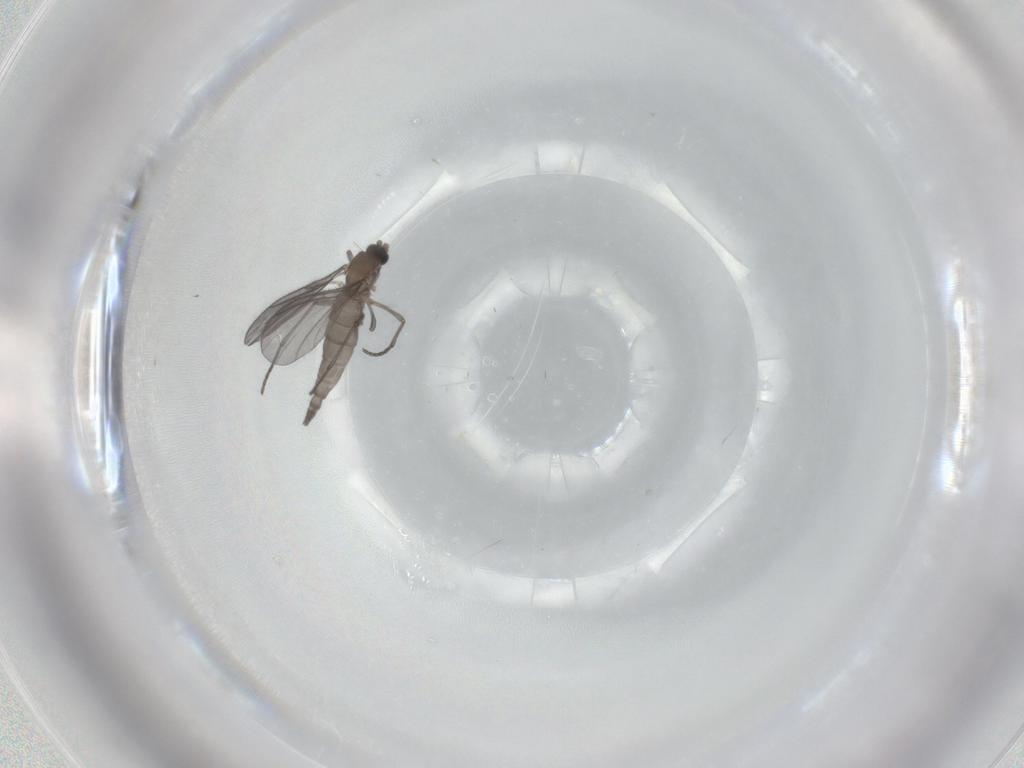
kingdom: Animalia
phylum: Arthropoda
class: Insecta
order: Diptera
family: Sciaridae
